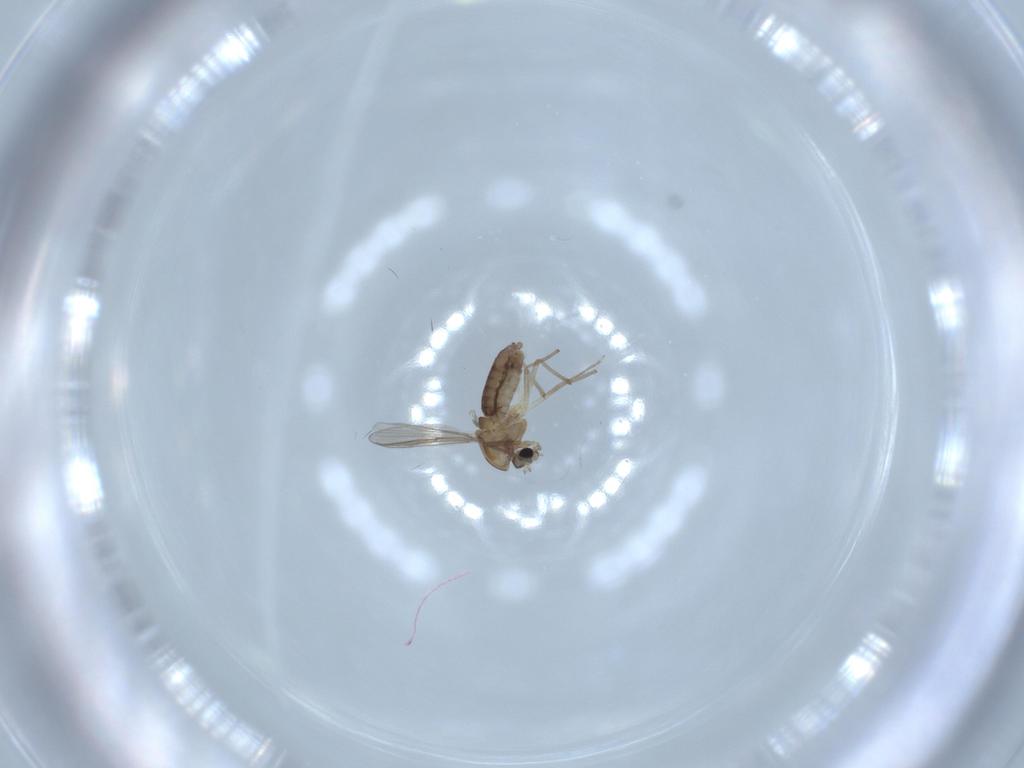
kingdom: Animalia
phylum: Arthropoda
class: Insecta
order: Diptera
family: Chironomidae
